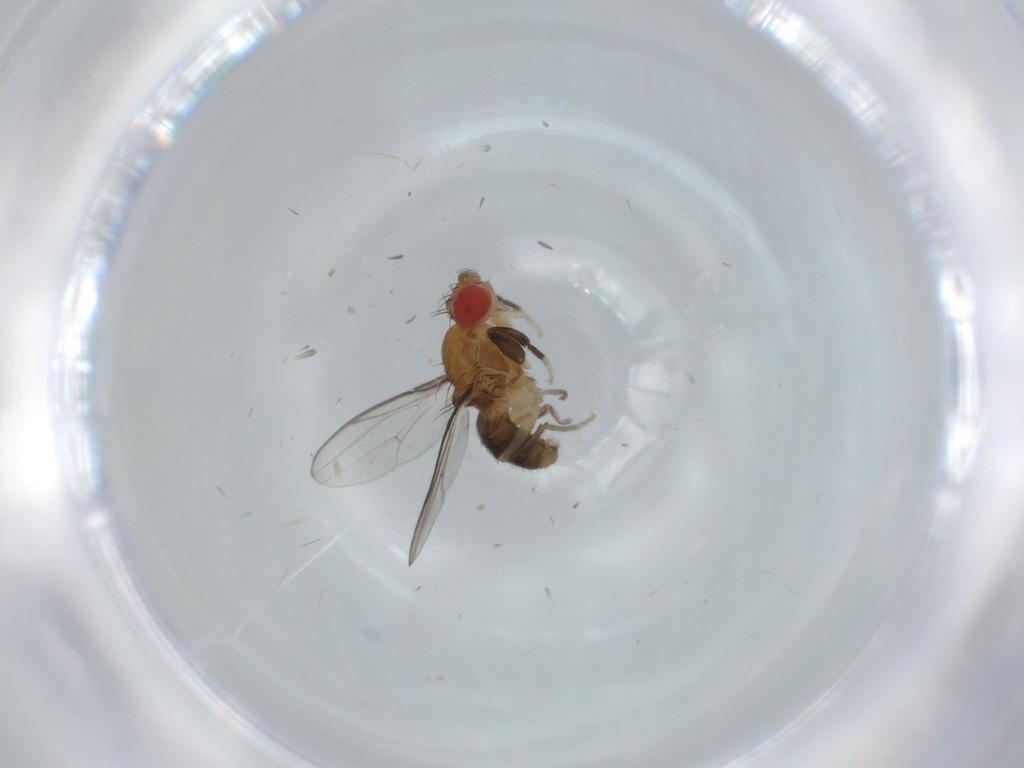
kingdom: Animalia
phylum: Arthropoda
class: Insecta
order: Diptera
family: Drosophilidae
